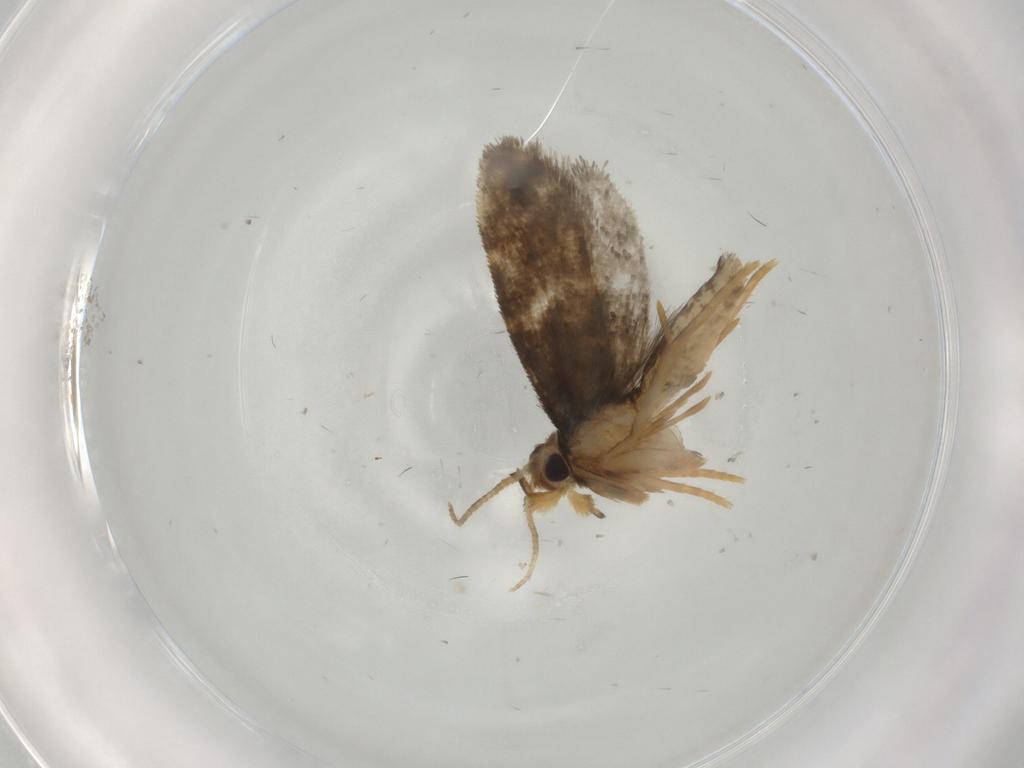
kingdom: Animalia
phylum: Arthropoda
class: Insecta
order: Lepidoptera
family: Psychidae
